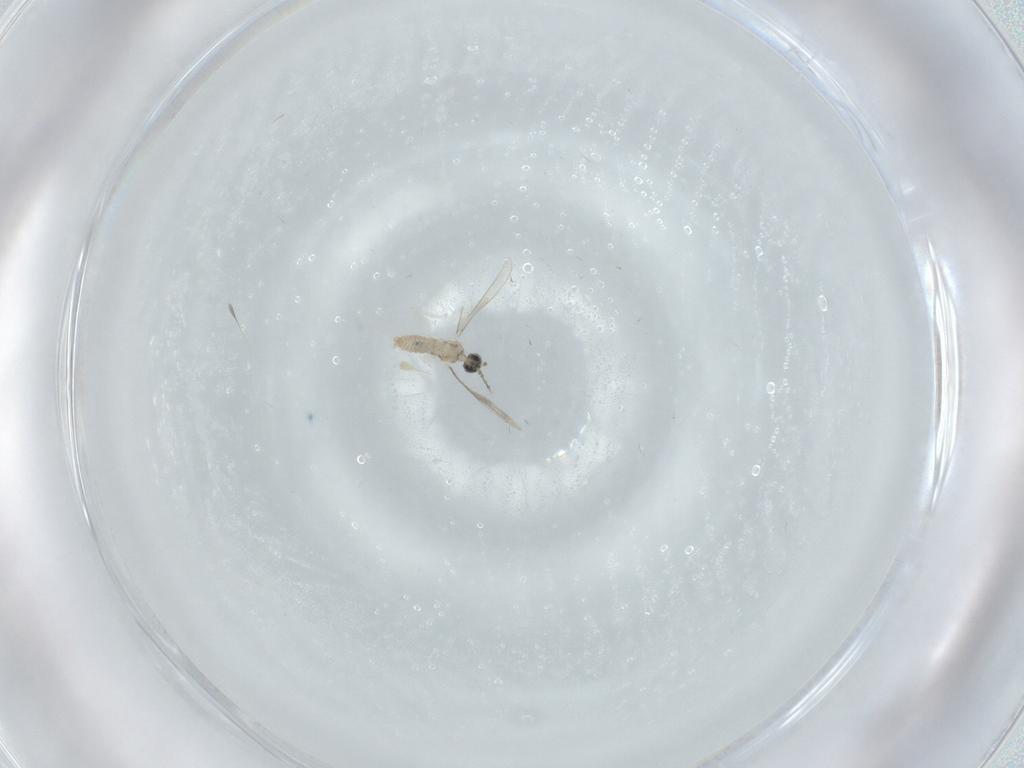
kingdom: Animalia
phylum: Arthropoda
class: Insecta
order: Diptera
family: Cecidomyiidae
